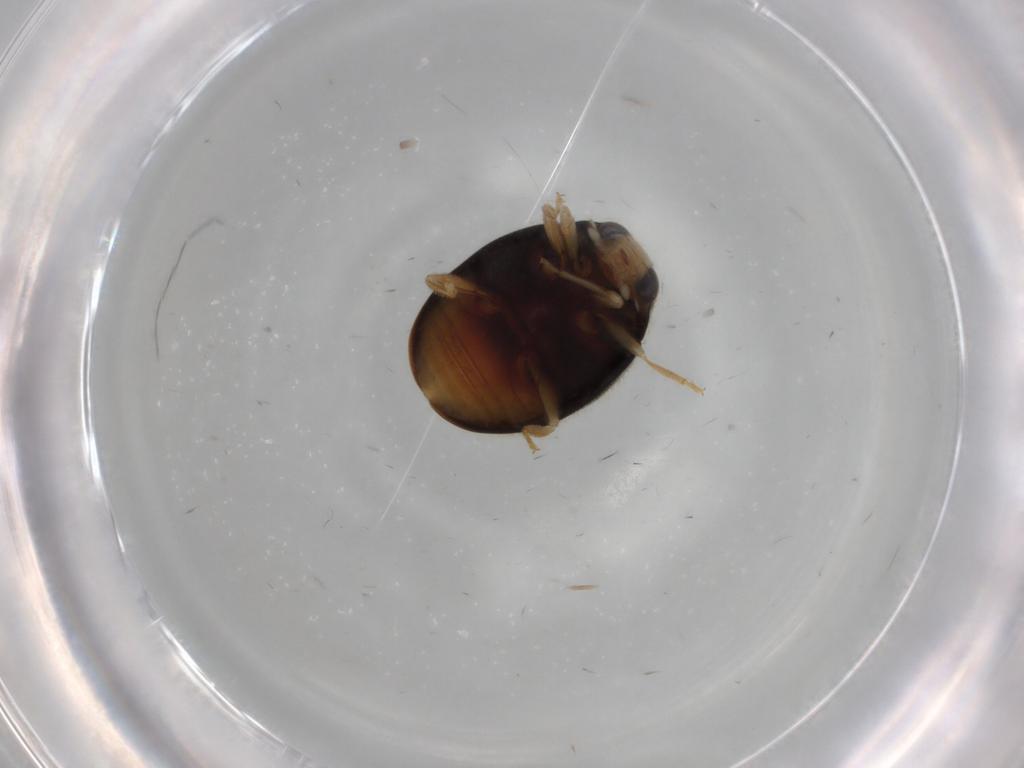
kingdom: Animalia
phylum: Arthropoda
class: Insecta
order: Coleoptera
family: Coccinellidae
